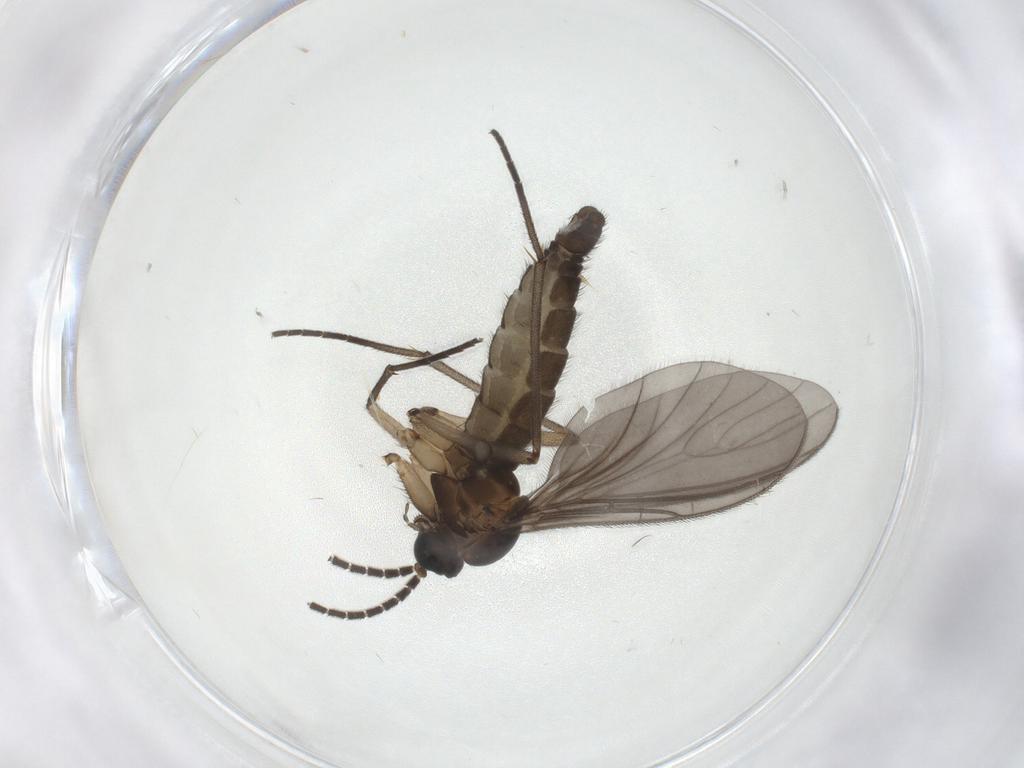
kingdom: Animalia
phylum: Arthropoda
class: Insecta
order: Diptera
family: Sciaridae
